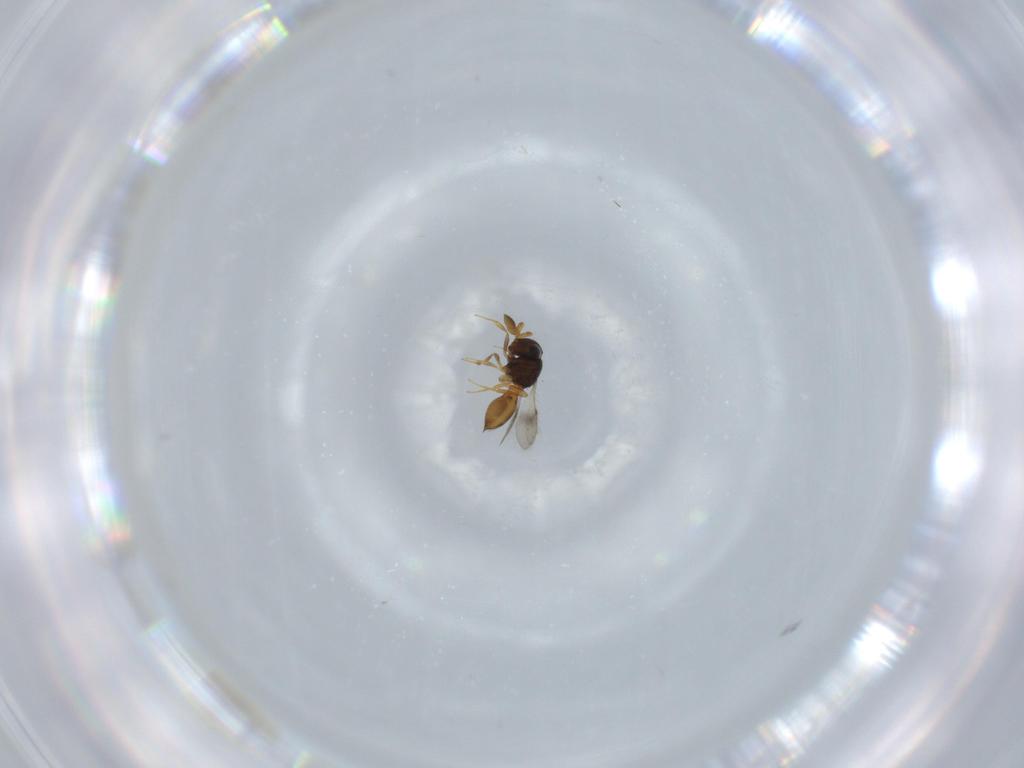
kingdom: Animalia
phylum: Arthropoda
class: Insecta
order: Hymenoptera
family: Scelionidae
